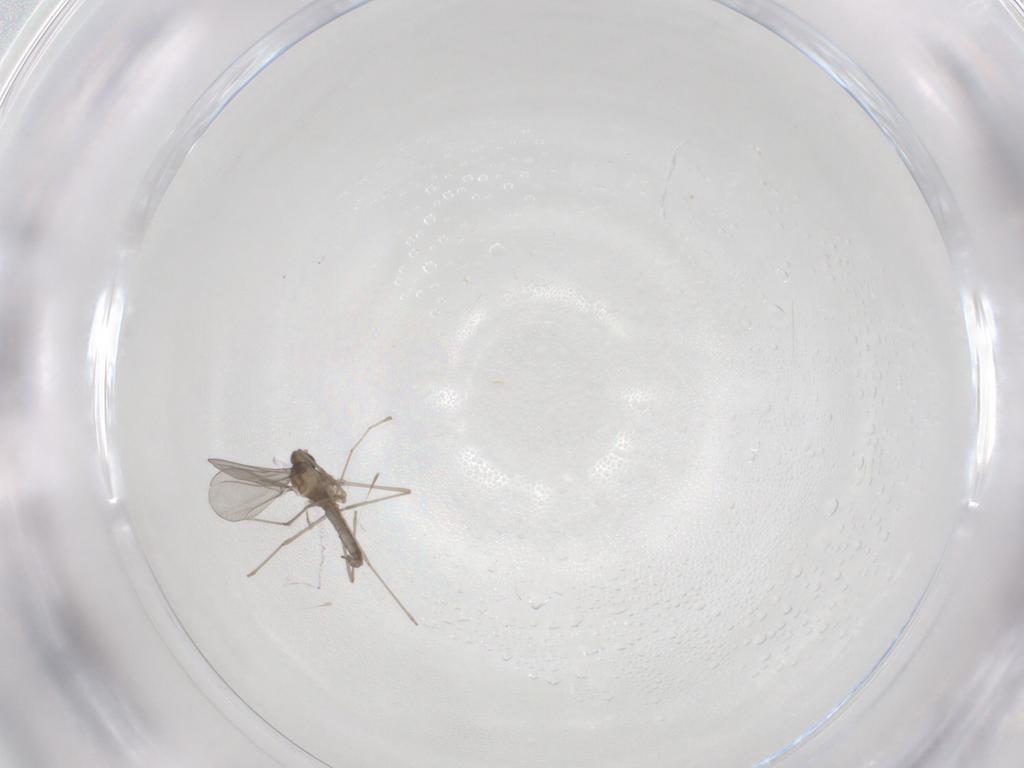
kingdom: Animalia
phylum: Arthropoda
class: Insecta
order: Diptera
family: Cecidomyiidae
